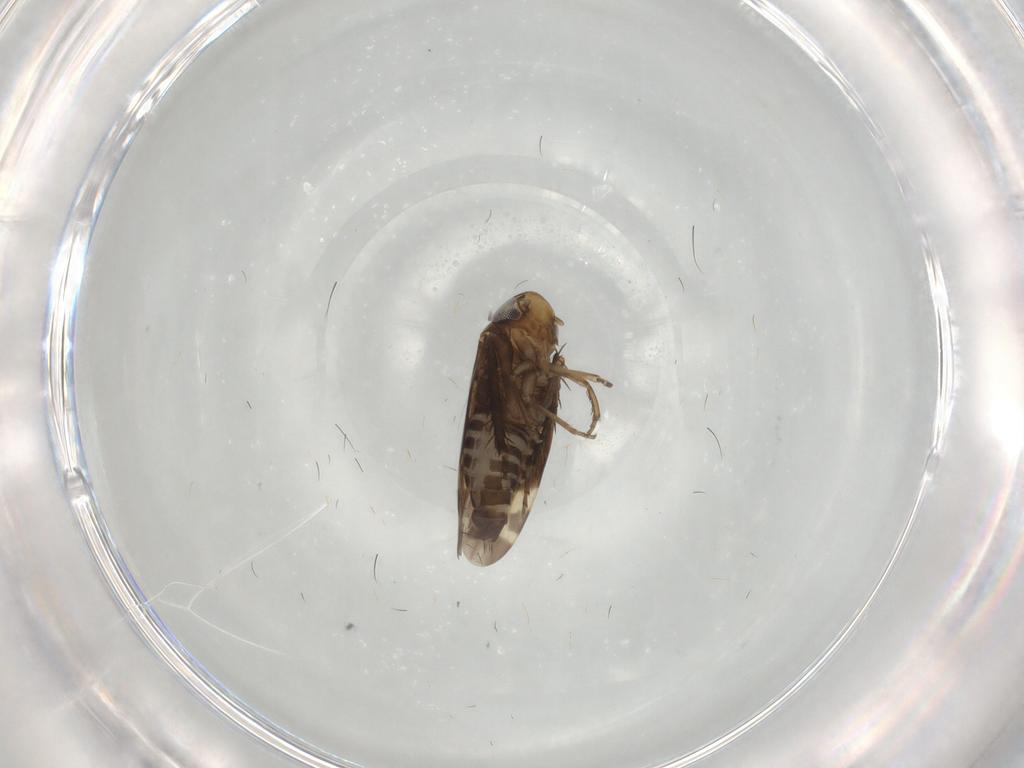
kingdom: Animalia
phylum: Arthropoda
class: Insecta
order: Hemiptera
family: Cicadellidae
